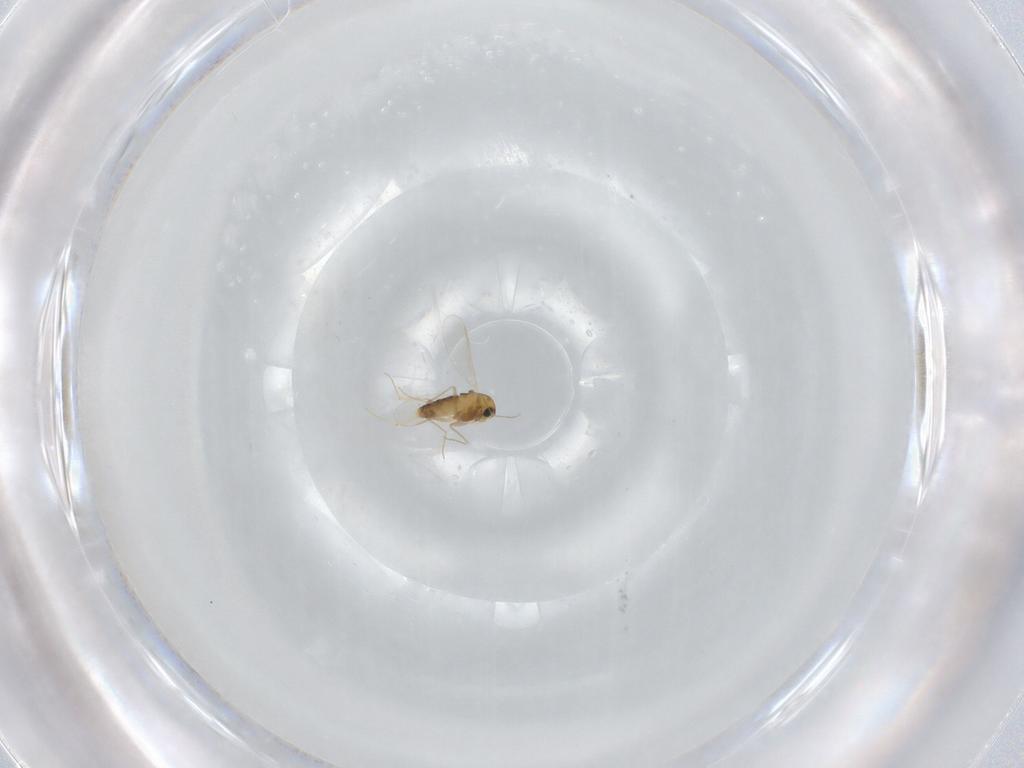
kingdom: Animalia
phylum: Arthropoda
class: Insecta
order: Diptera
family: Chironomidae
